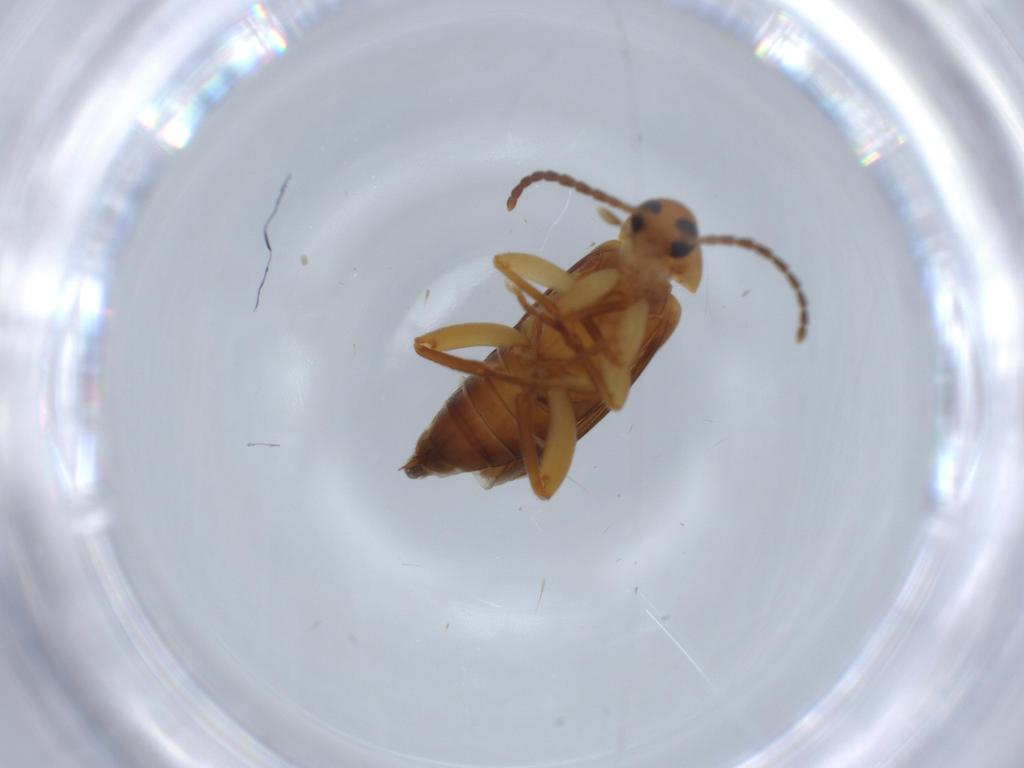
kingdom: Animalia
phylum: Arthropoda
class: Insecta
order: Coleoptera
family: Scraptiidae
